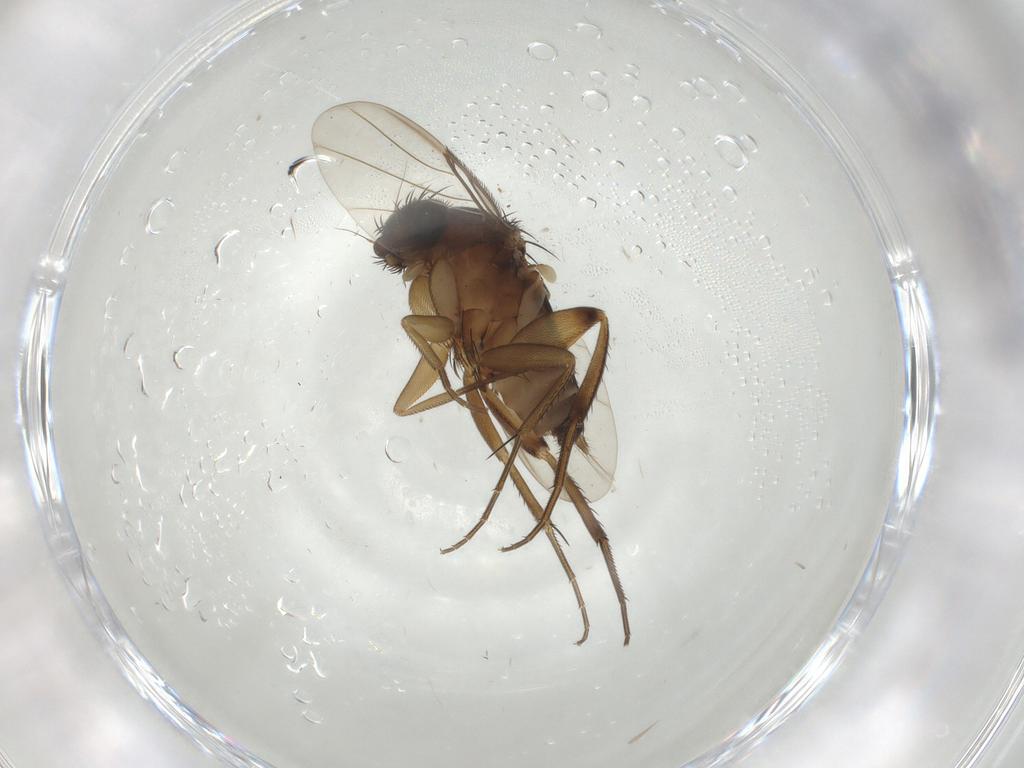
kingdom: Animalia
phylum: Arthropoda
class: Insecta
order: Diptera
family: Phoridae
